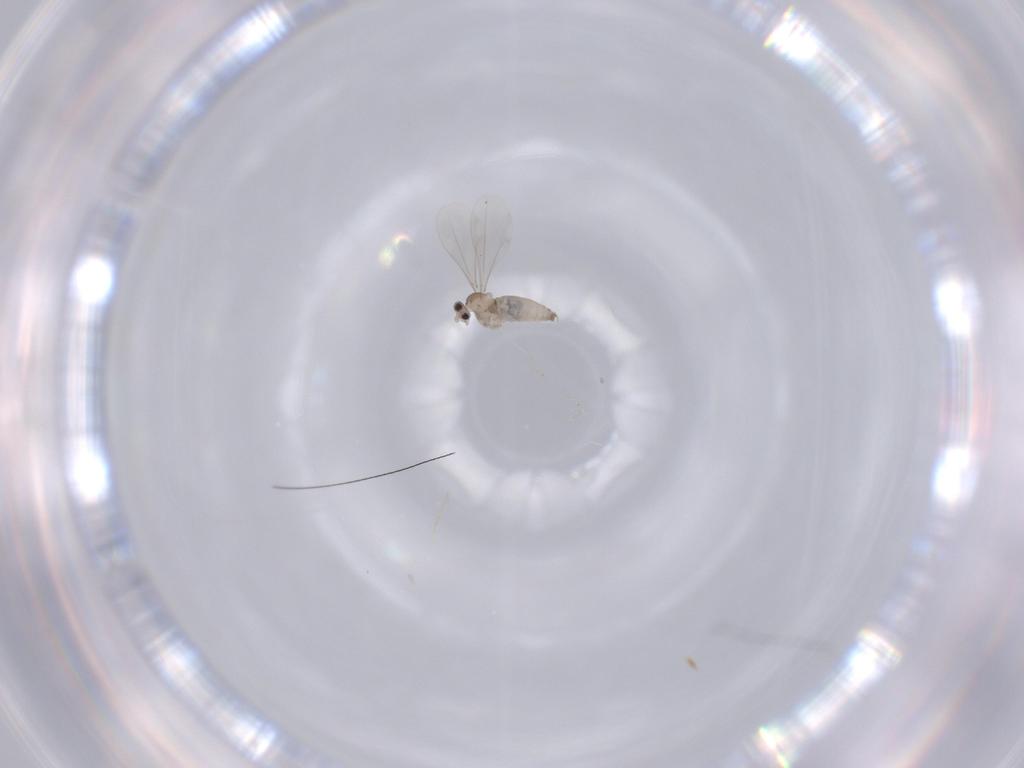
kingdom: Animalia
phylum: Arthropoda
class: Insecta
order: Diptera
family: Cecidomyiidae
